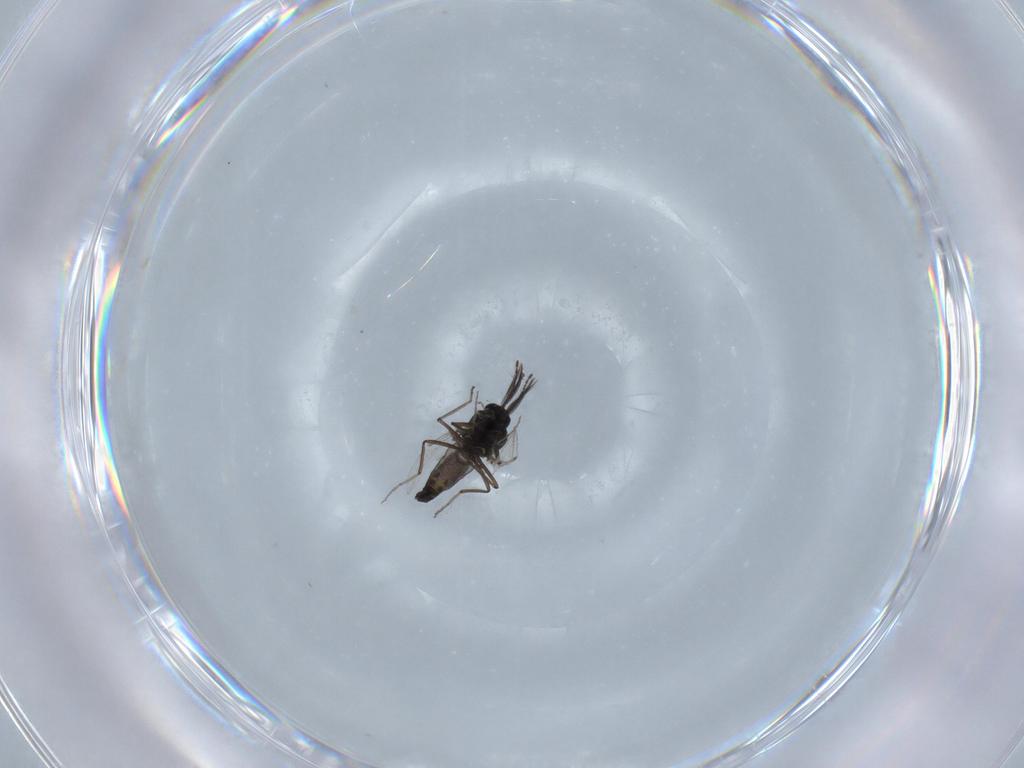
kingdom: Animalia
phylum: Arthropoda
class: Insecta
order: Diptera
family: Ceratopogonidae
